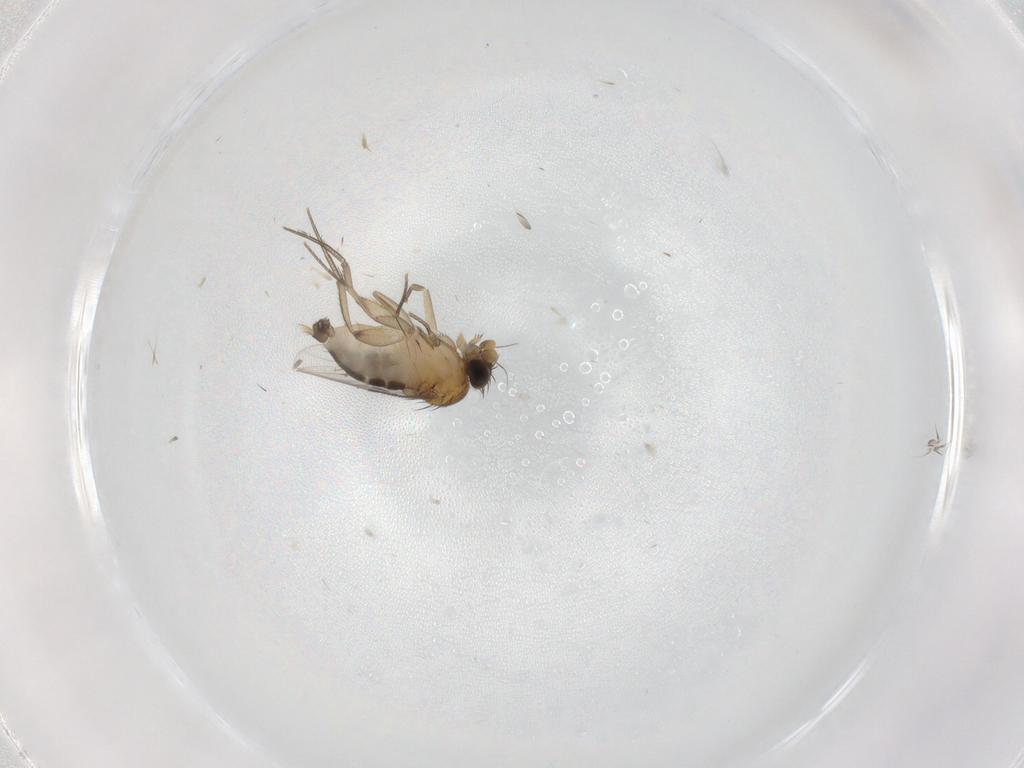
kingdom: Animalia
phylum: Arthropoda
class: Insecta
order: Diptera
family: Phoridae
